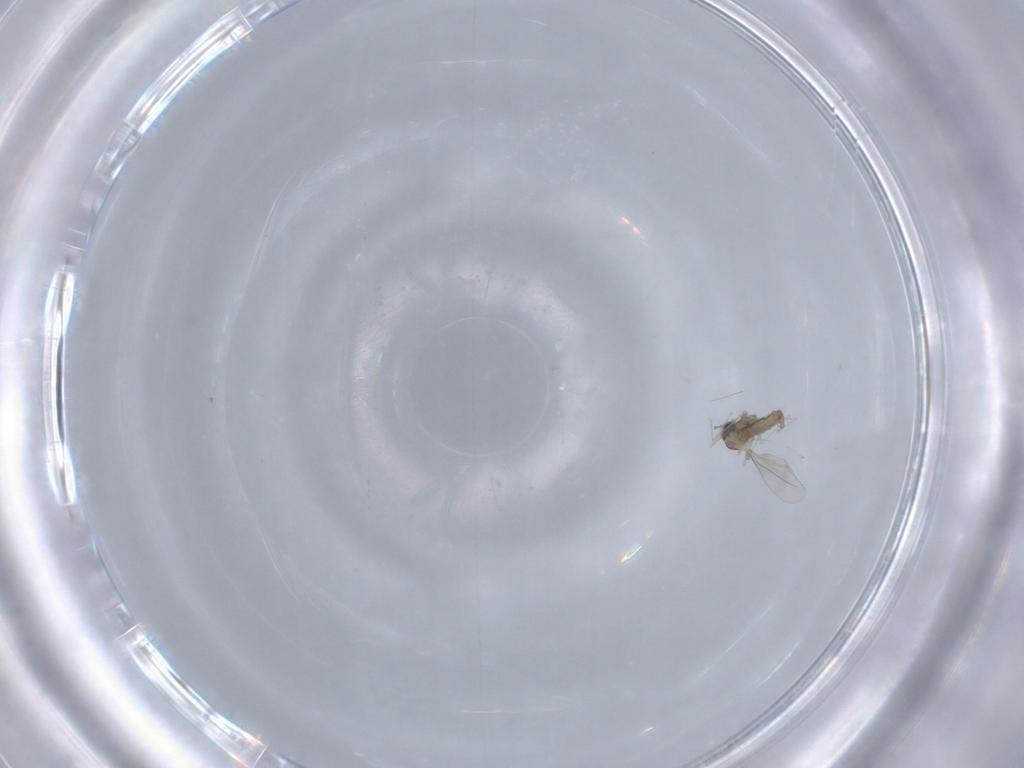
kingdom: Animalia
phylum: Arthropoda
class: Insecta
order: Diptera
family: Cecidomyiidae
